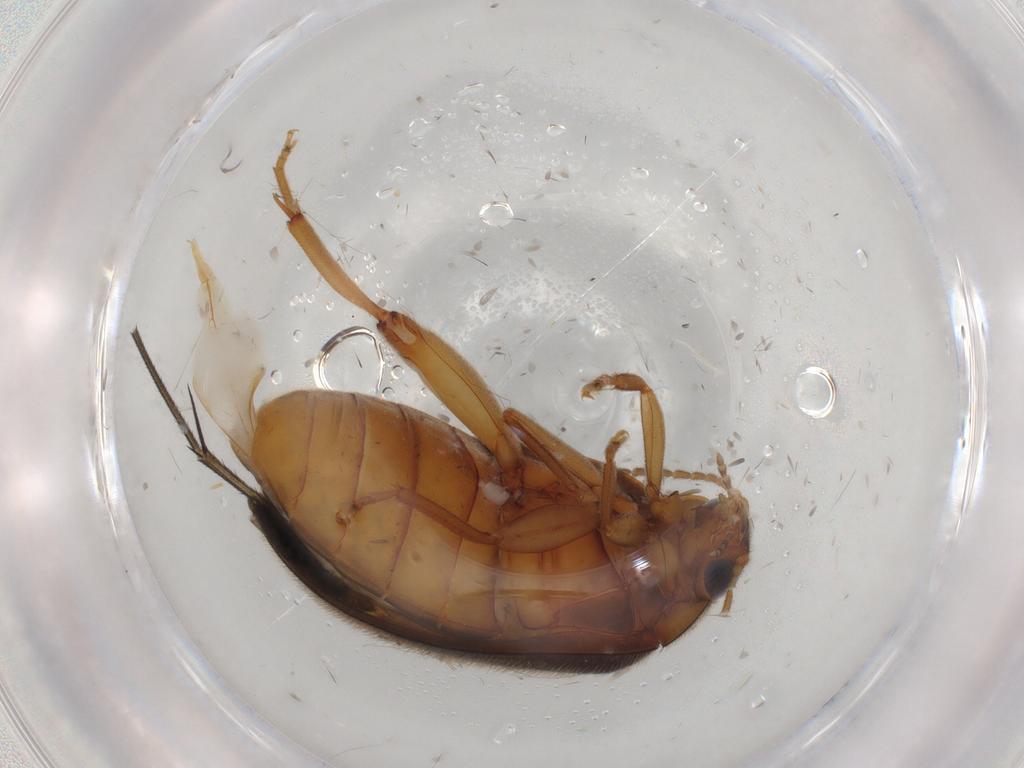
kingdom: Animalia
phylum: Arthropoda
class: Insecta
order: Coleoptera
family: Scirtidae
